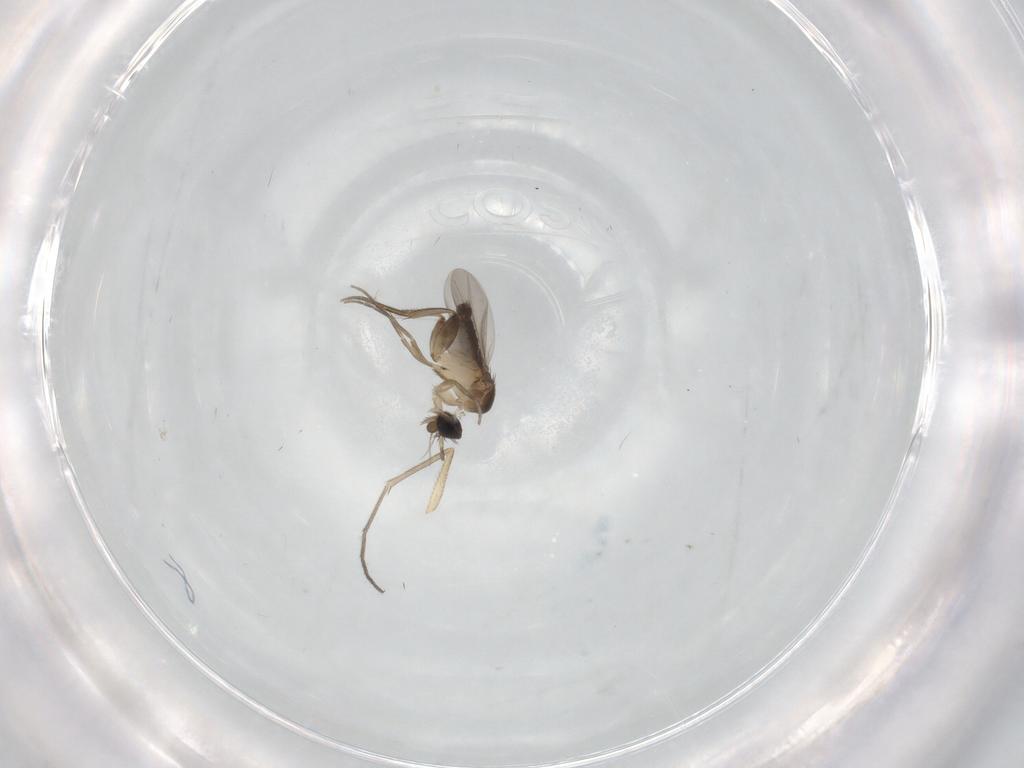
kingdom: Animalia
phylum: Arthropoda
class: Insecta
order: Diptera
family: Phoridae
